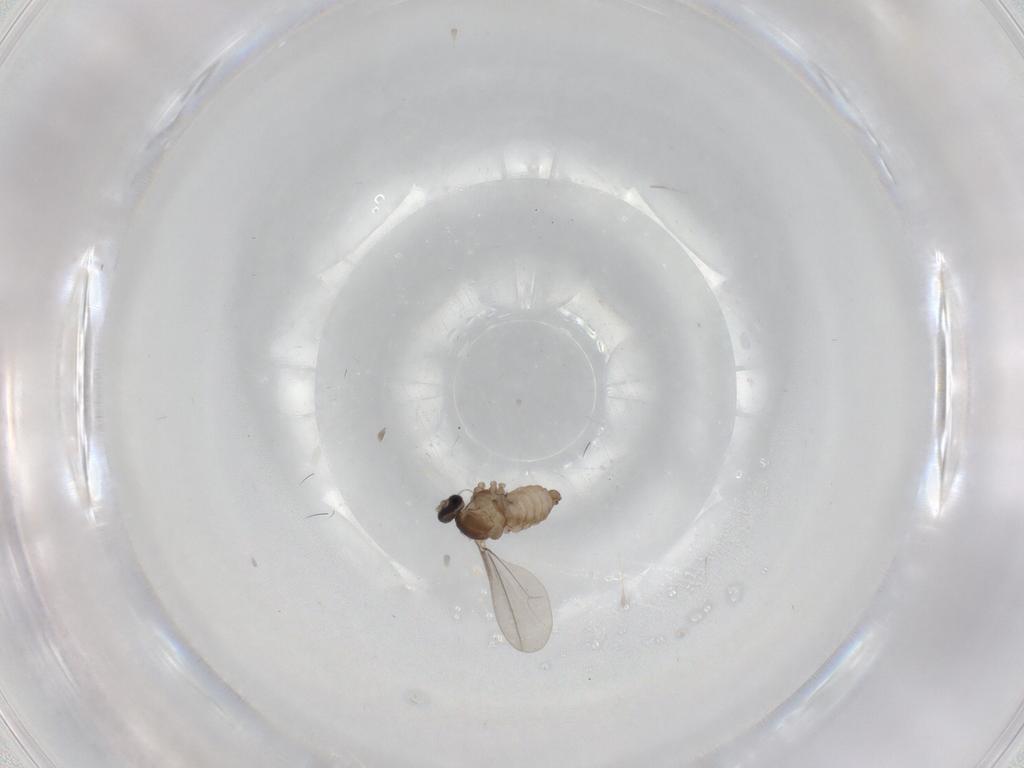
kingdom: Animalia
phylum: Arthropoda
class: Insecta
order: Diptera
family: Cecidomyiidae
